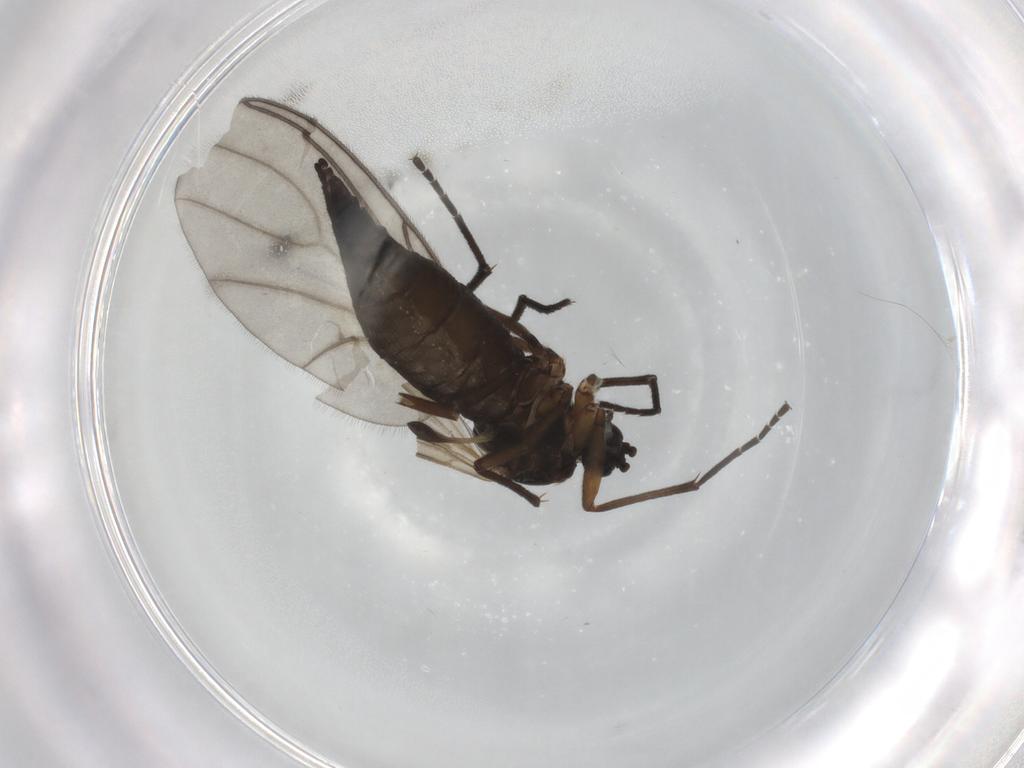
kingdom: Animalia
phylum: Arthropoda
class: Insecta
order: Diptera
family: Sciaridae
